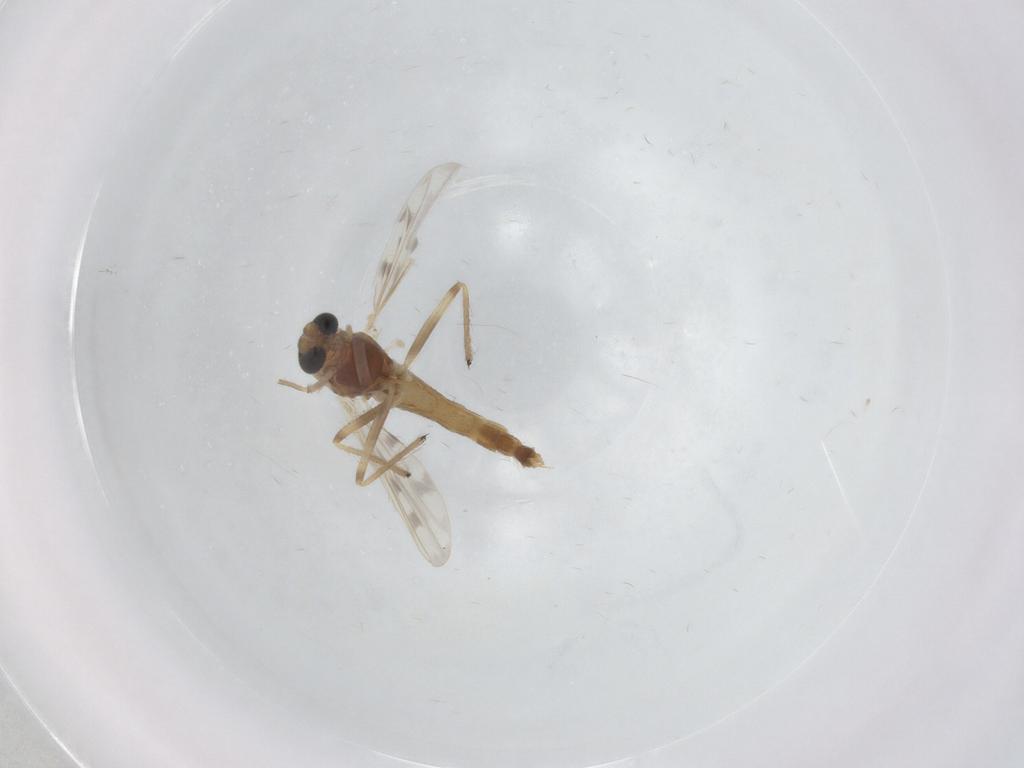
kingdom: Animalia
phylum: Arthropoda
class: Insecta
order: Diptera
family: Chironomidae
